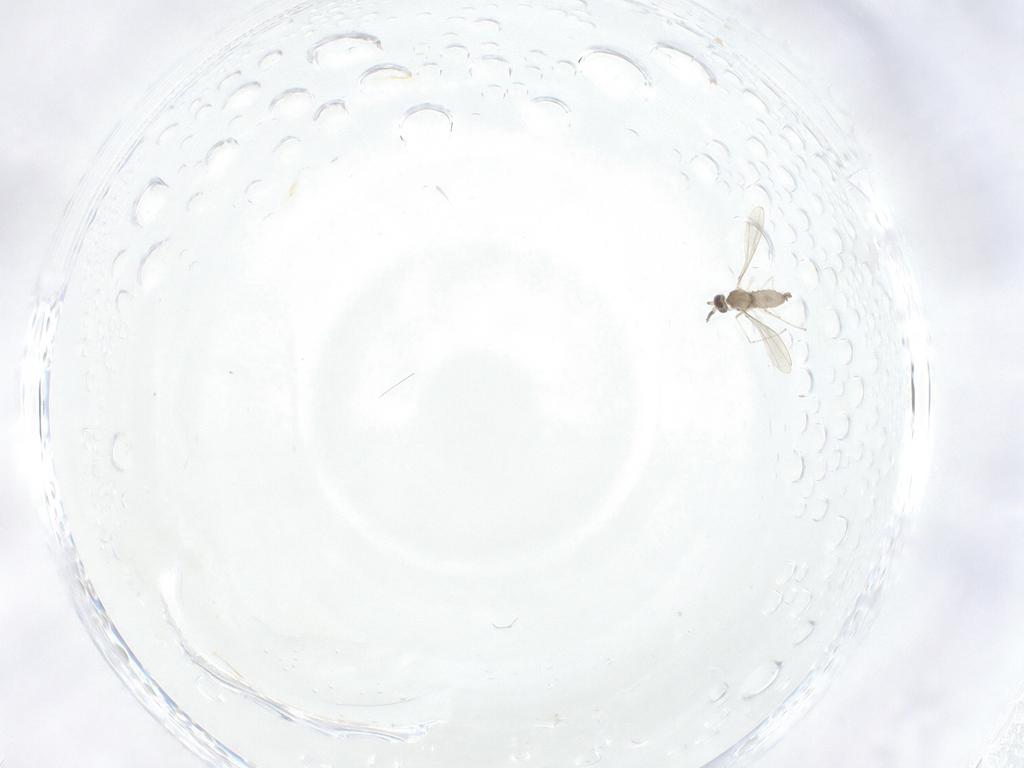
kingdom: Animalia
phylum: Arthropoda
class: Insecta
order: Diptera
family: Cecidomyiidae
